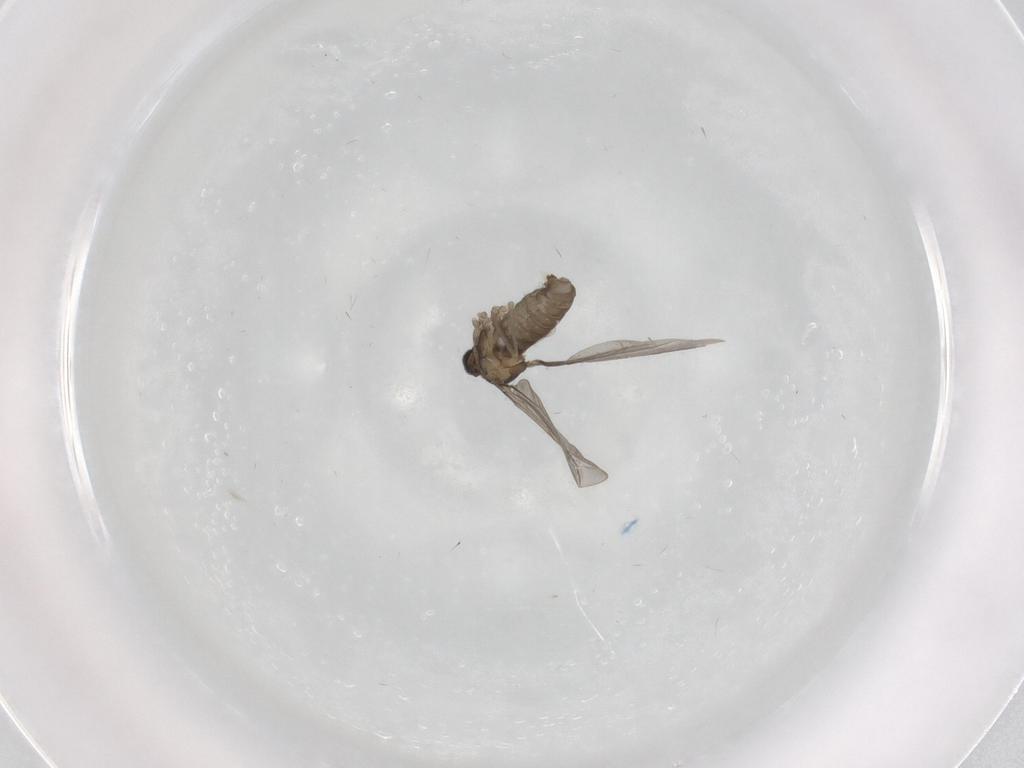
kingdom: Animalia
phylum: Arthropoda
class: Insecta
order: Diptera
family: Cecidomyiidae
